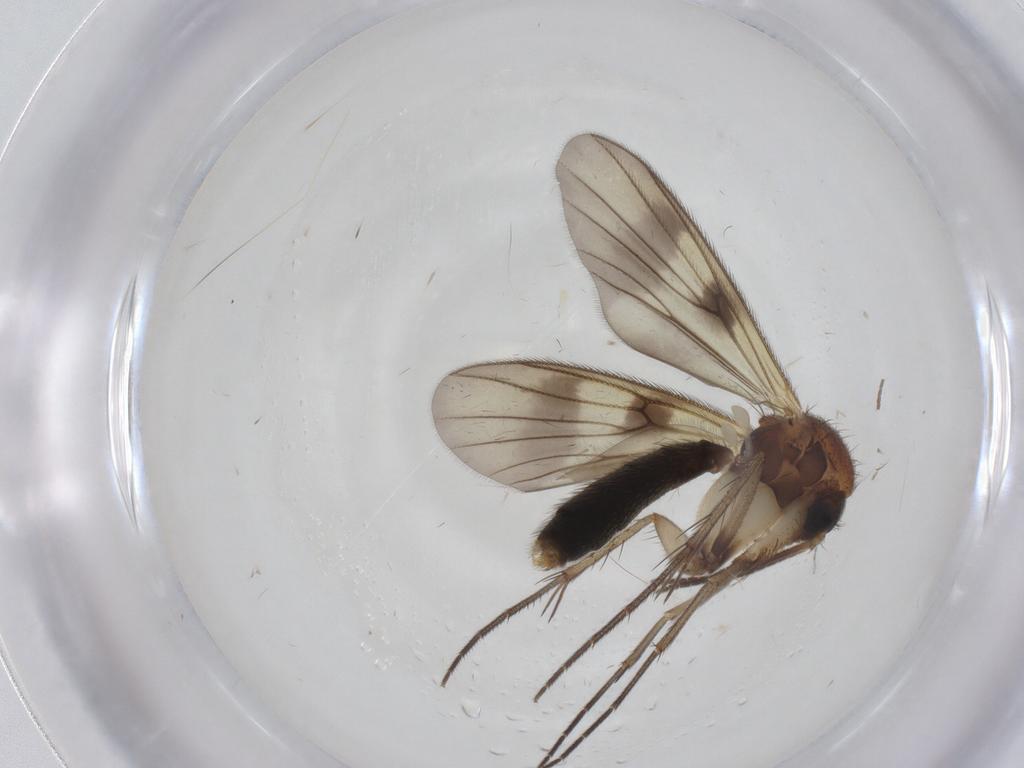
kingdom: Animalia
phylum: Arthropoda
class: Insecta
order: Diptera
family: Mycetophilidae
